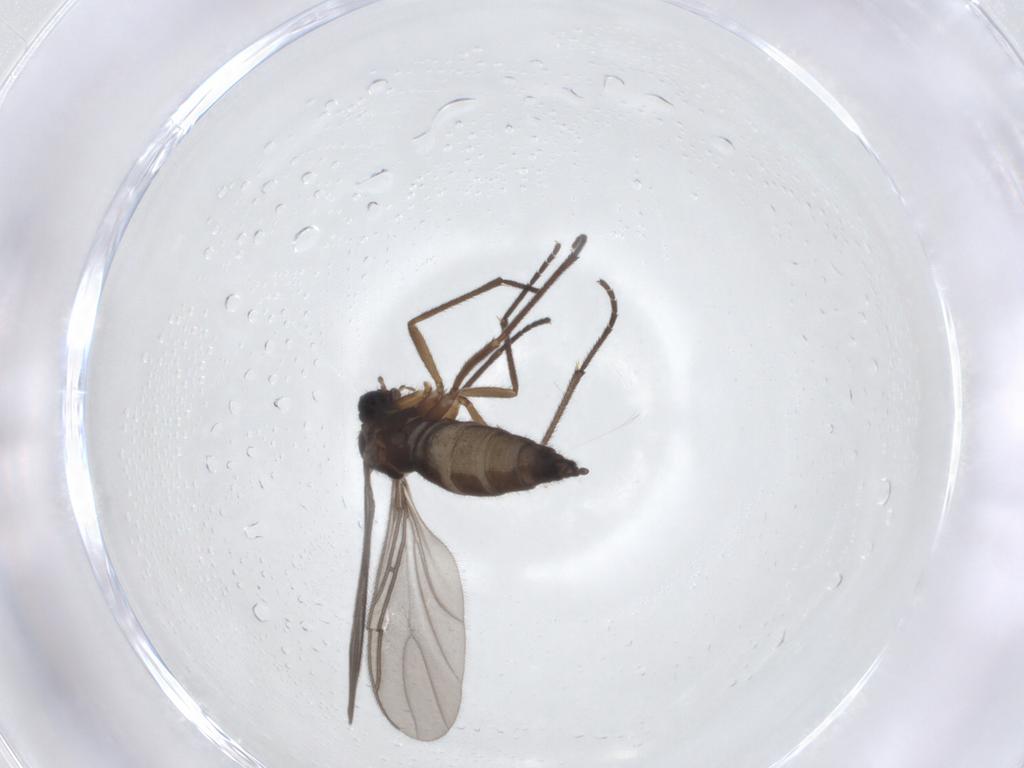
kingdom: Animalia
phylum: Arthropoda
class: Insecta
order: Diptera
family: Sciaridae
